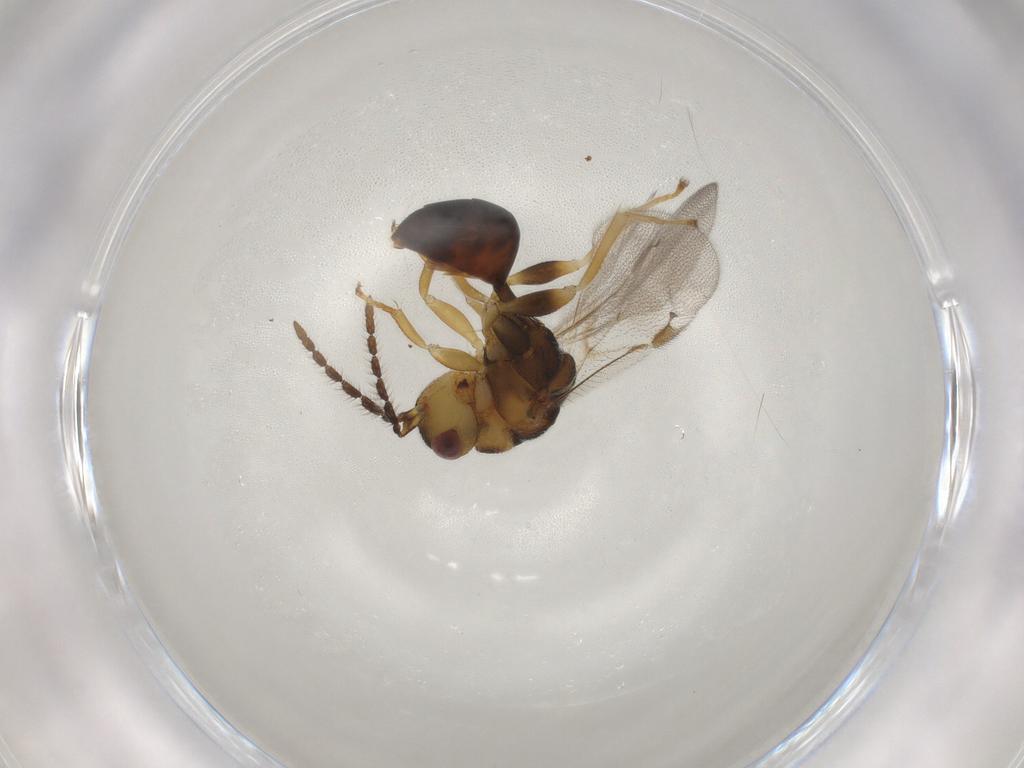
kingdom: Animalia
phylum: Arthropoda
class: Insecta
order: Hymenoptera
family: Eurytomidae
